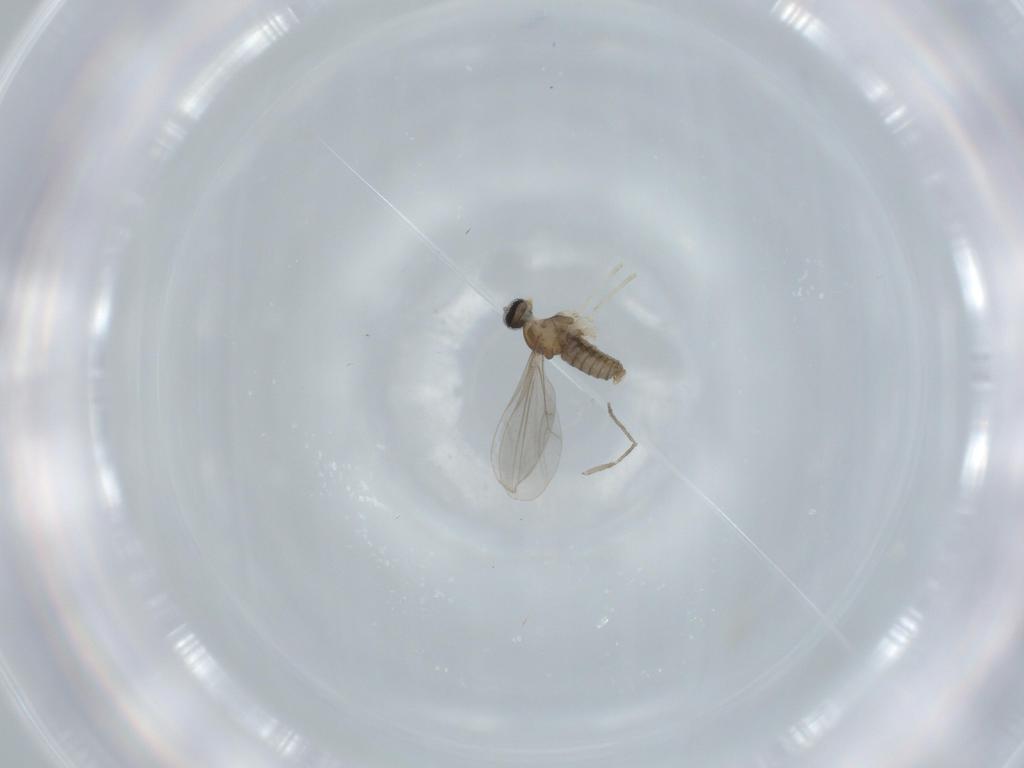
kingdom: Animalia
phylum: Arthropoda
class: Insecta
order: Diptera
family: Cecidomyiidae
